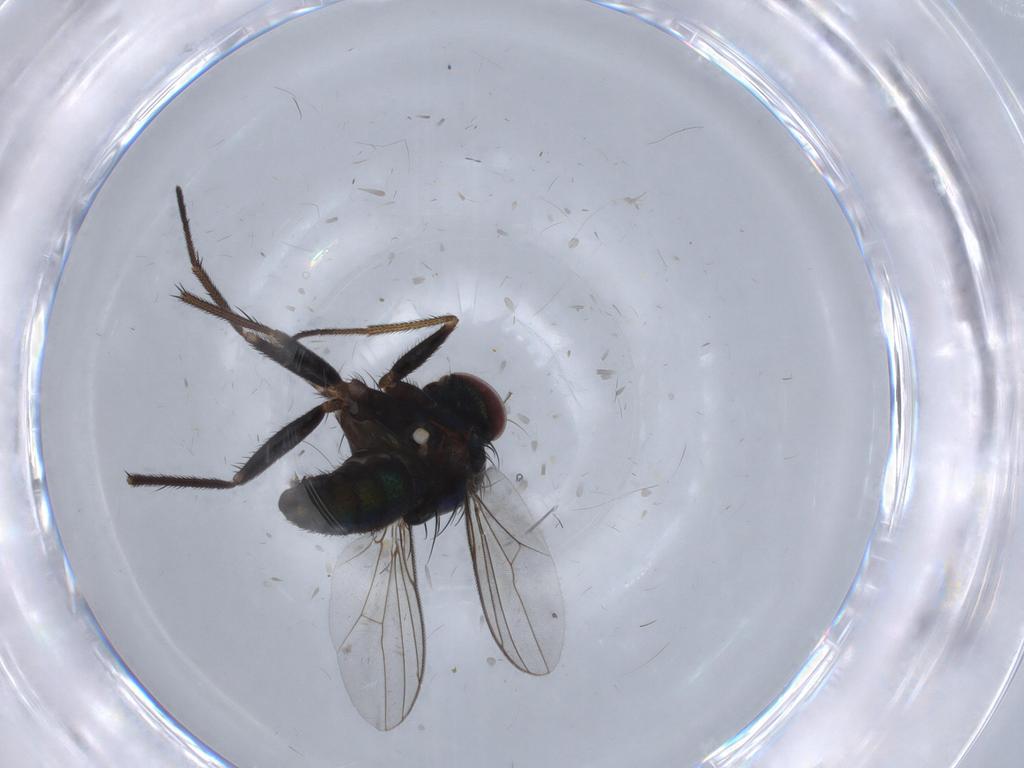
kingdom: Animalia
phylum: Arthropoda
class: Insecta
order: Diptera
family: Dolichopodidae
